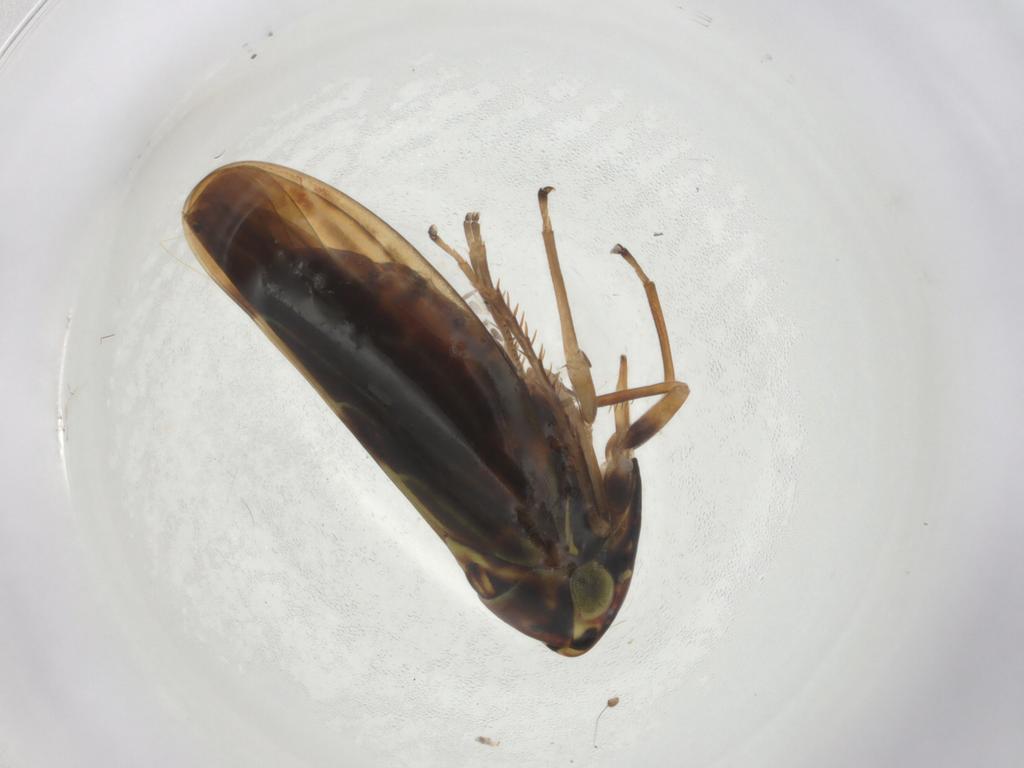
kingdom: Animalia
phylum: Arthropoda
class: Insecta
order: Hemiptera
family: Cicadellidae
